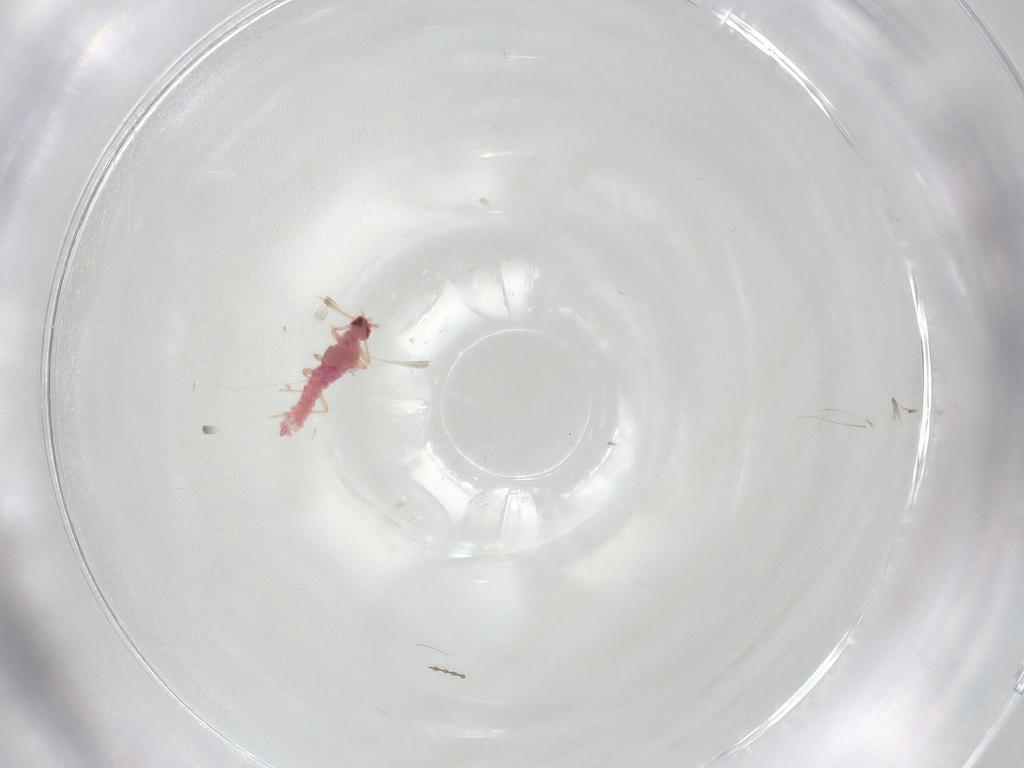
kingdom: Animalia
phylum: Arthropoda
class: Insecta
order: Diptera
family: Cecidomyiidae
